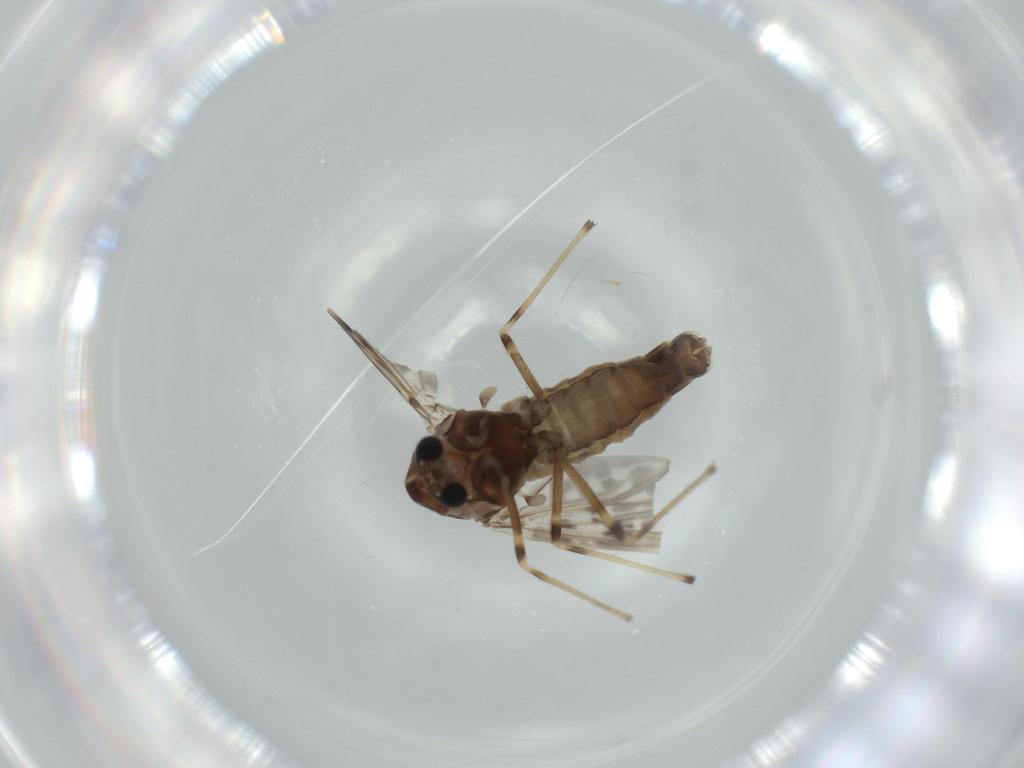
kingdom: Animalia
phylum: Arthropoda
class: Insecta
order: Diptera
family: Chironomidae
